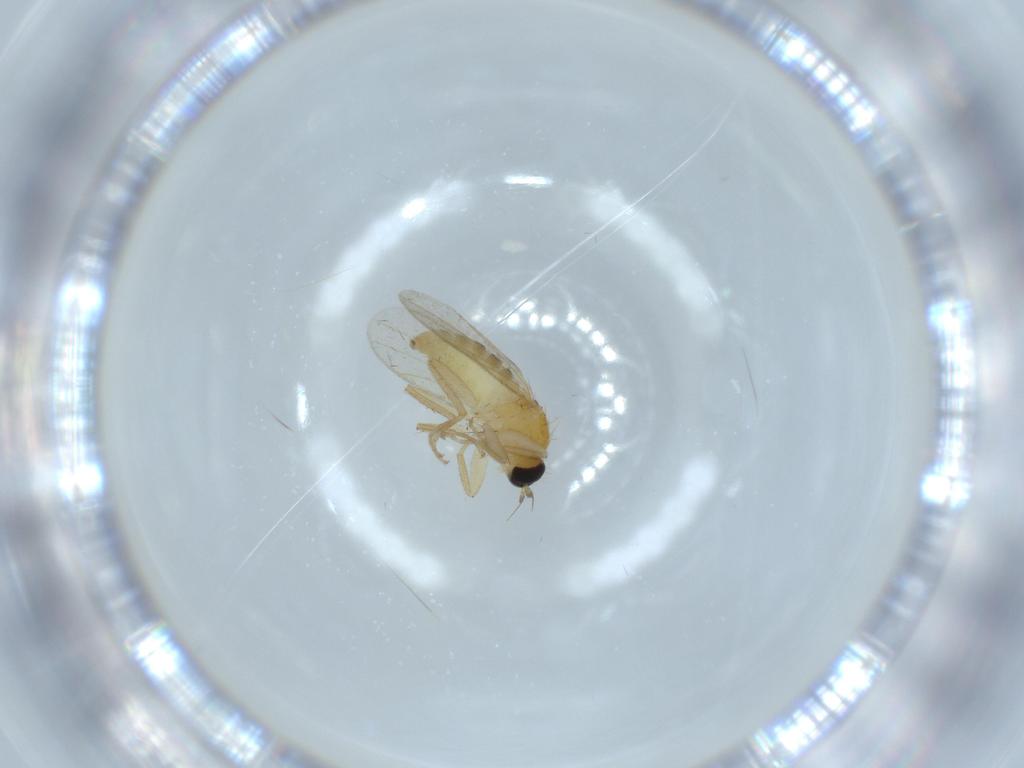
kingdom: Animalia
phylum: Arthropoda
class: Insecta
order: Diptera
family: Hybotidae
